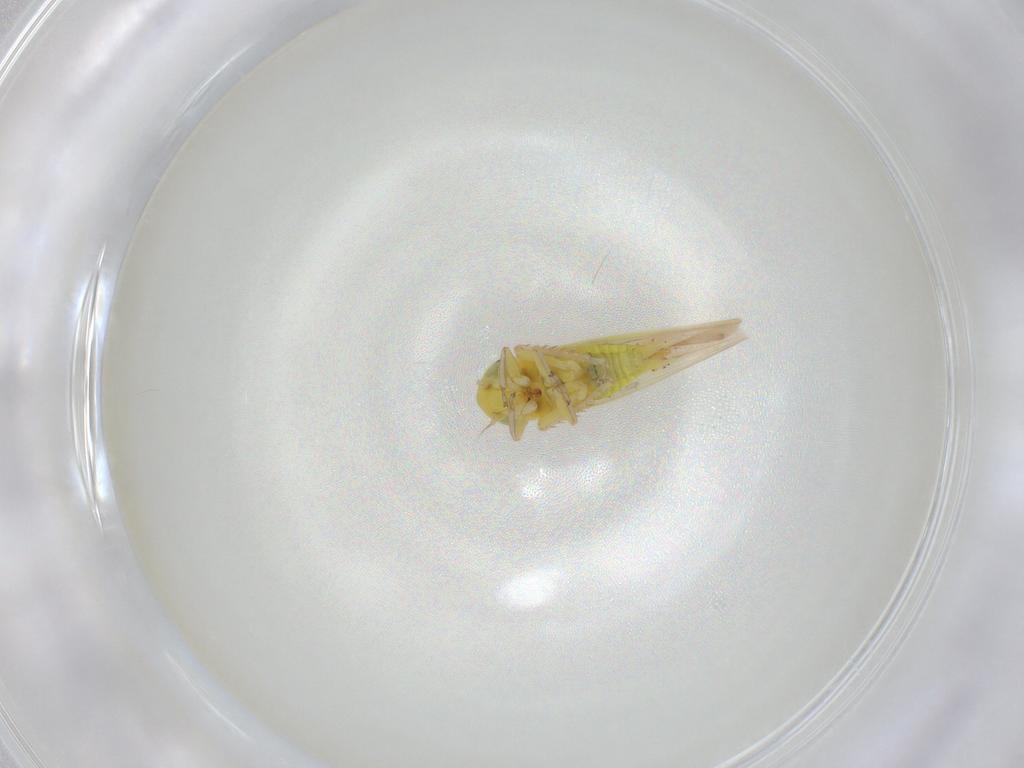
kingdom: Animalia
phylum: Arthropoda
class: Insecta
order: Hemiptera
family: Cicadellidae
